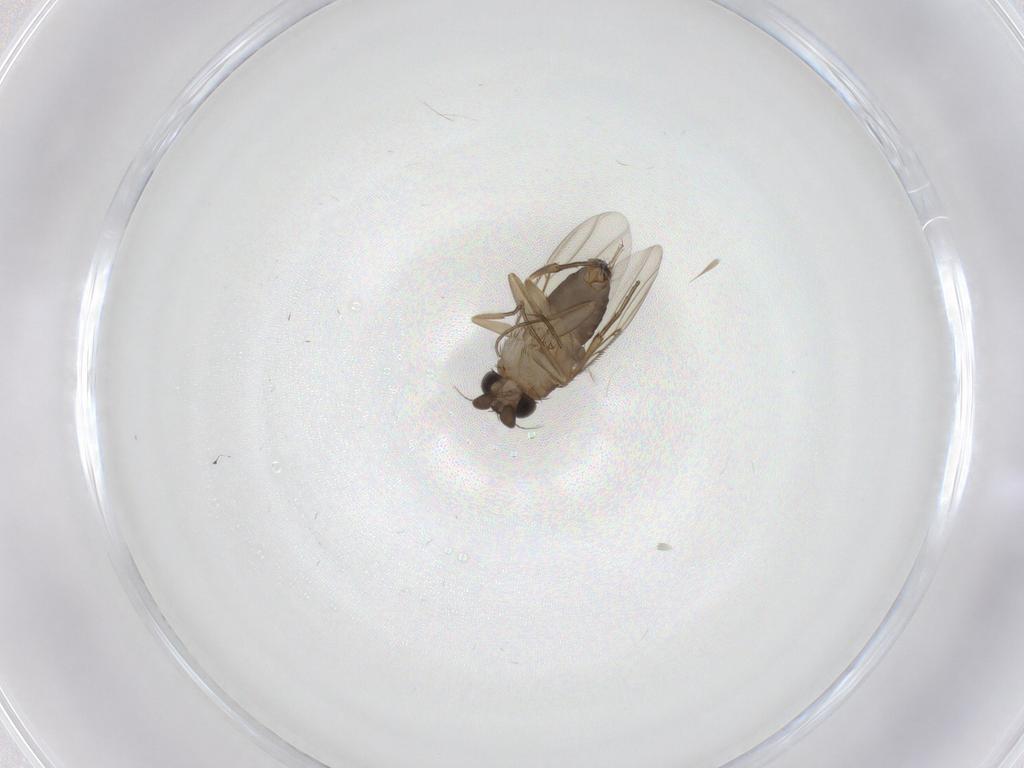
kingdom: Animalia
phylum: Arthropoda
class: Insecta
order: Diptera
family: Phoridae
